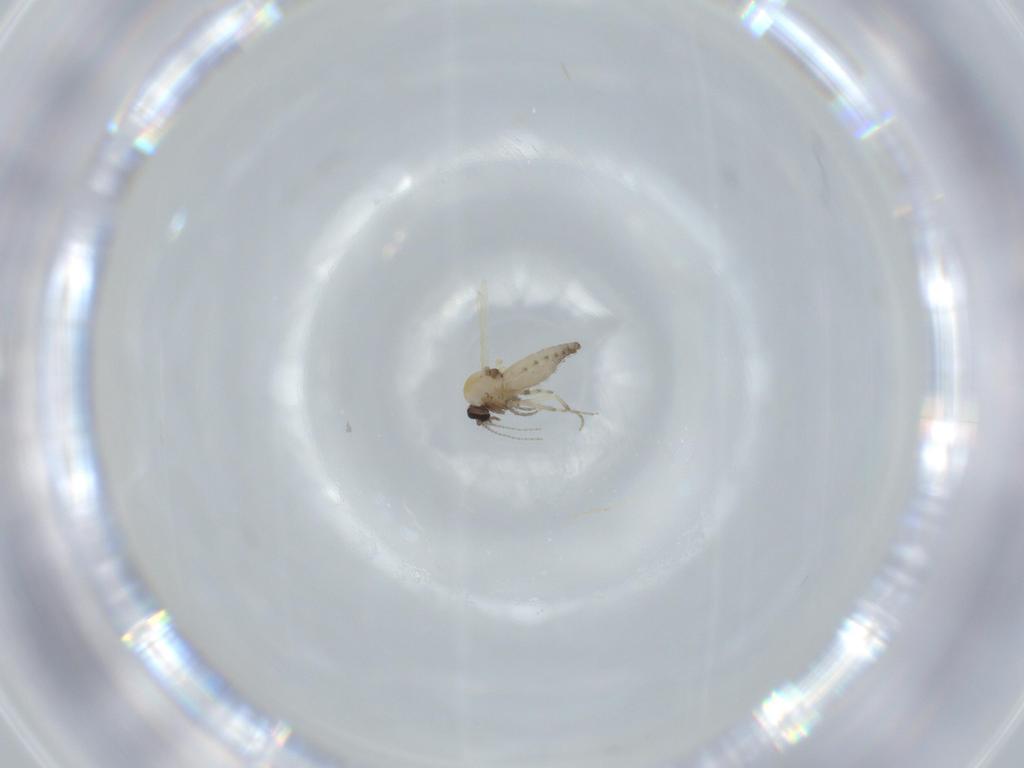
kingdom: Animalia
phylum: Arthropoda
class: Insecta
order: Diptera
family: Ceratopogonidae
